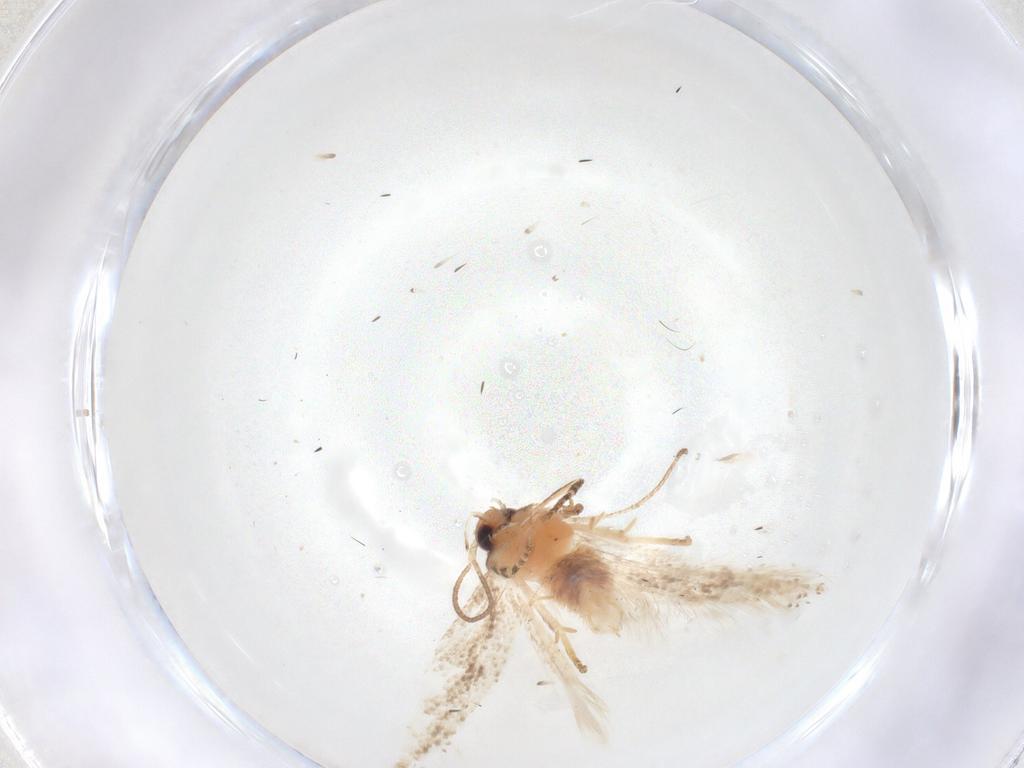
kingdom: Animalia
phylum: Arthropoda
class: Insecta
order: Lepidoptera
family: Gelechiidae
